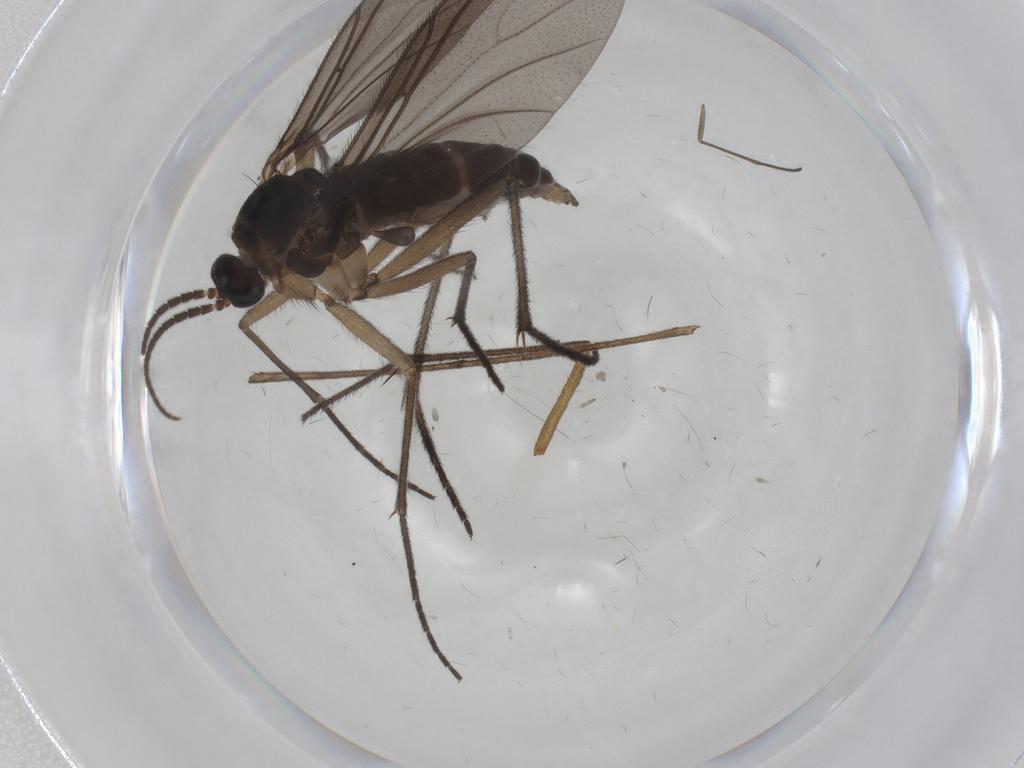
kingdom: Animalia
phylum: Arthropoda
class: Insecta
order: Diptera
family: Sciaridae
